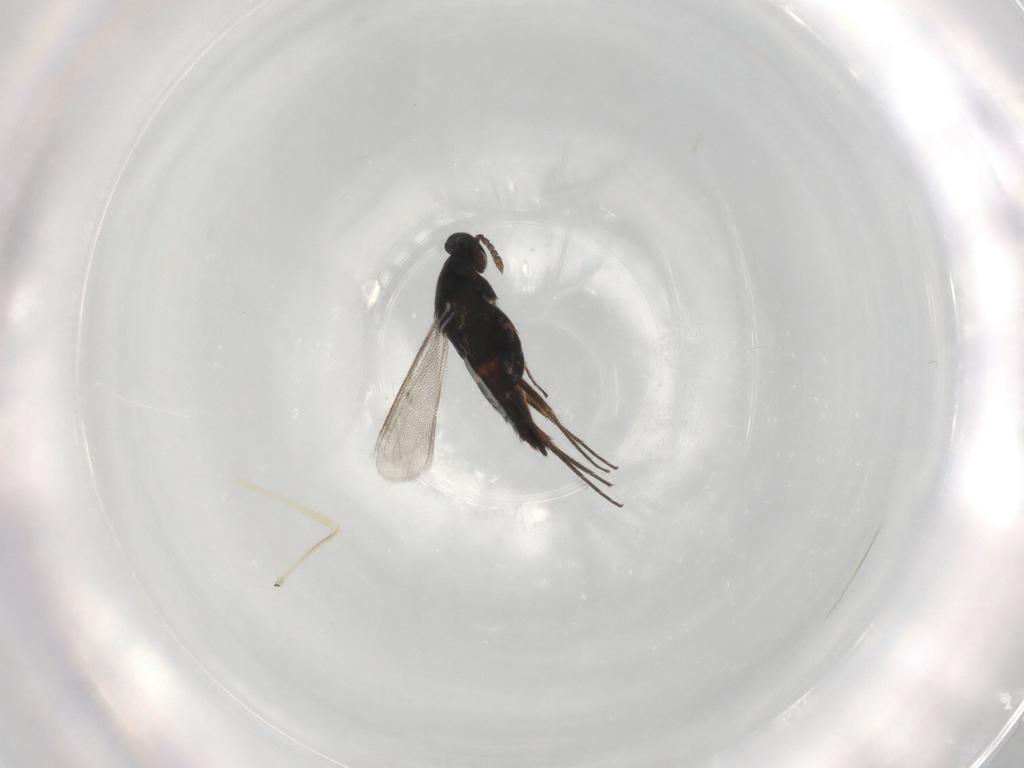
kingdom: Animalia
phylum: Arthropoda
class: Insecta
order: Hymenoptera
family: Eulophidae
